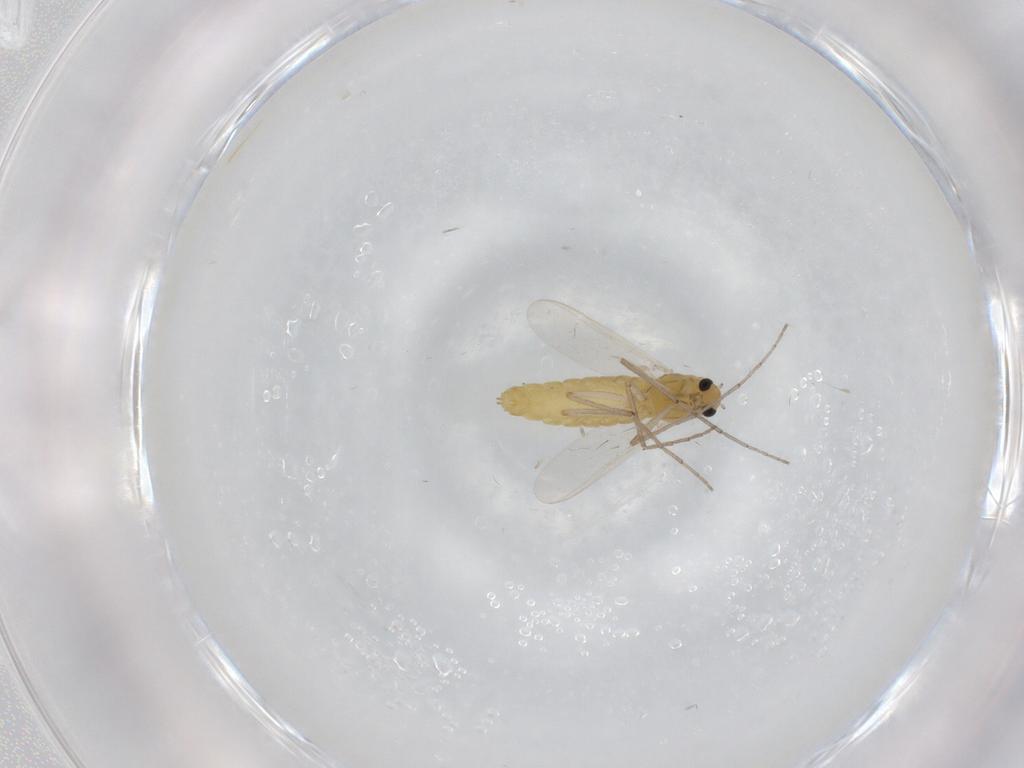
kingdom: Animalia
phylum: Arthropoda
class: Insecta
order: Diptera
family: Chironomidae
